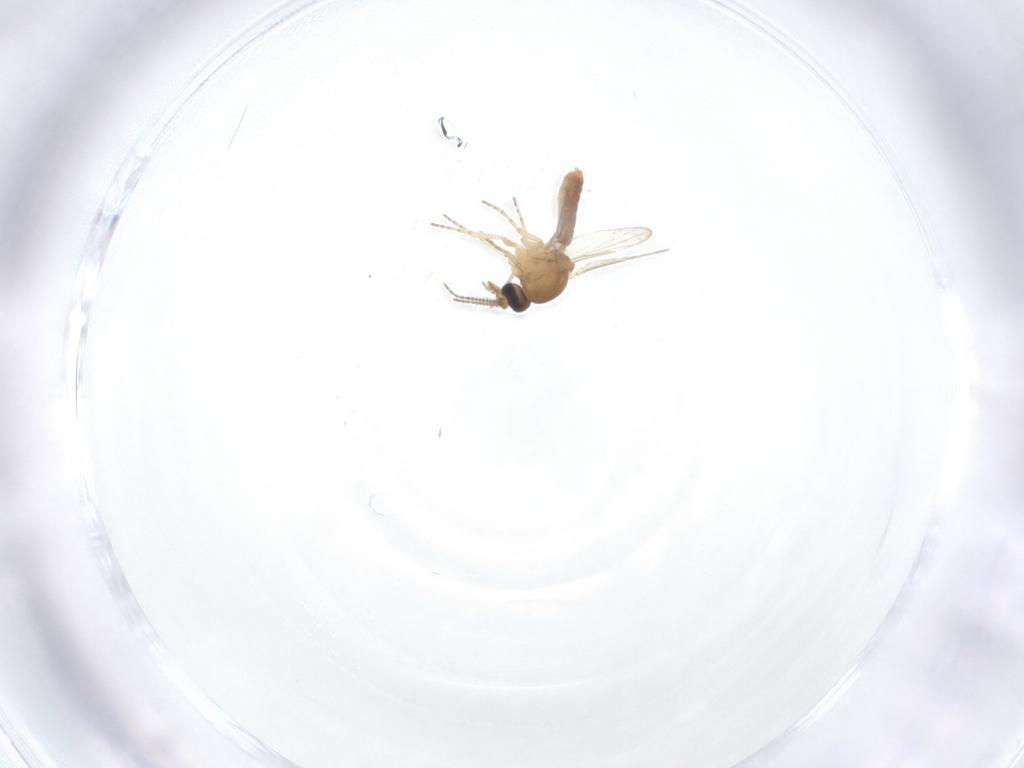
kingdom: Animalia
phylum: Arthropoda
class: Insecta
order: Diptera
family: Ceratopogonidae
